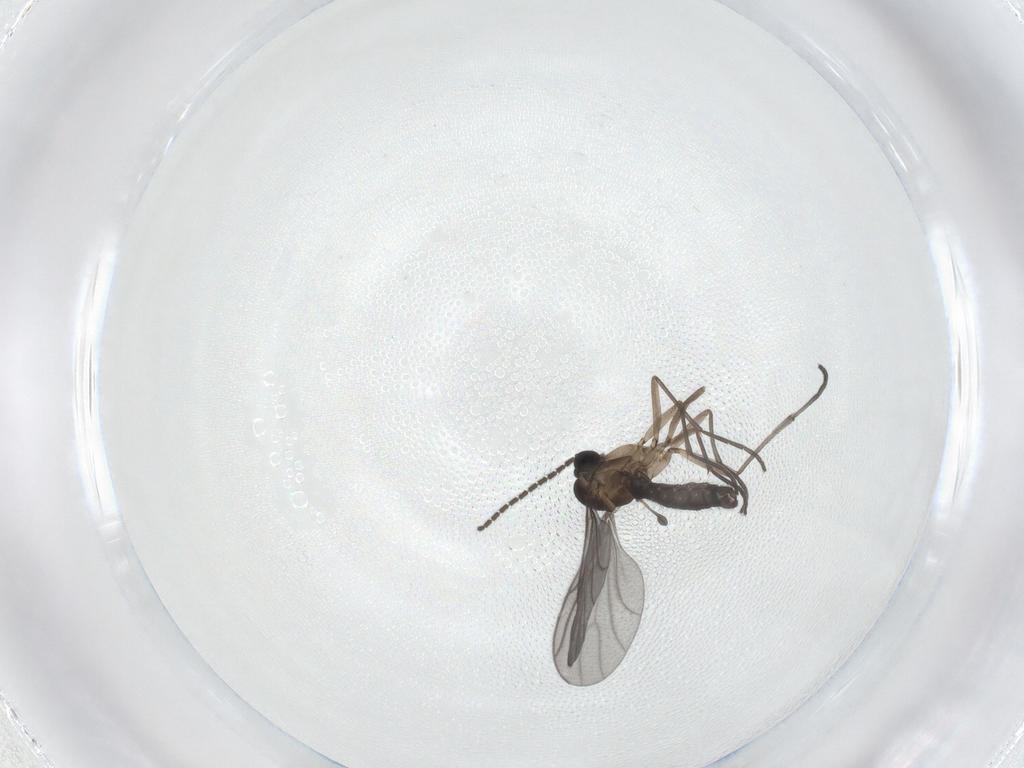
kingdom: Animalia
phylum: Arthropoda
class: Insecta
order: Diptera
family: Sciaridae
